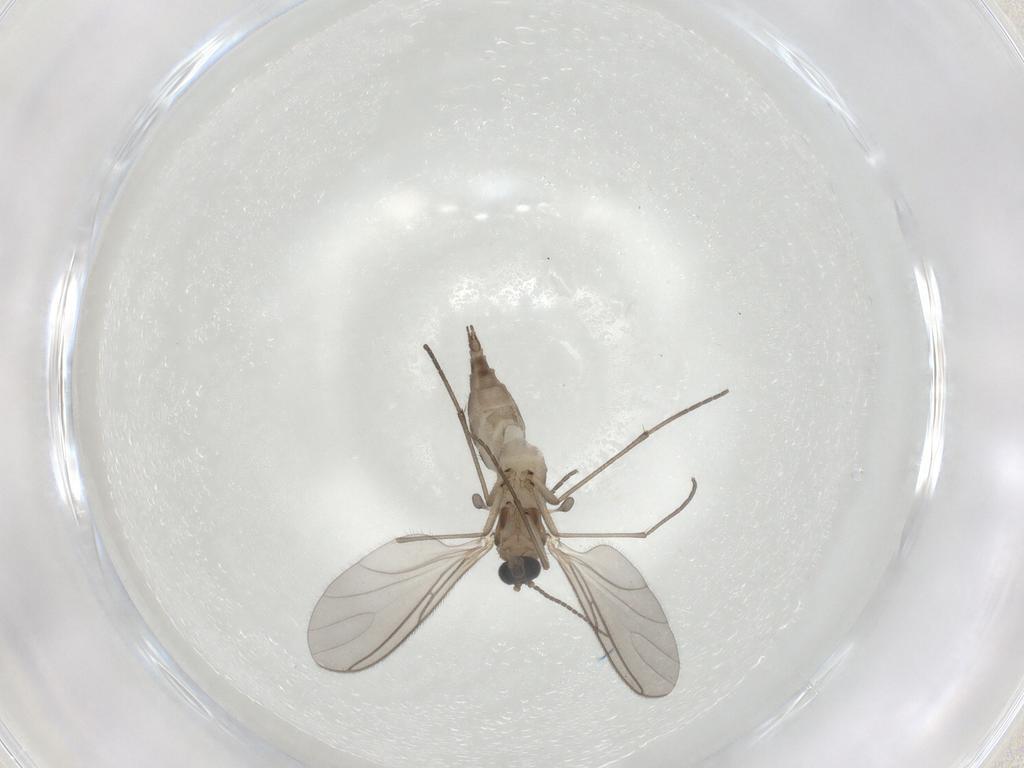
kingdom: Animalia
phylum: Arthropoda
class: Insecta
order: Diptera
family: Sciaridae
